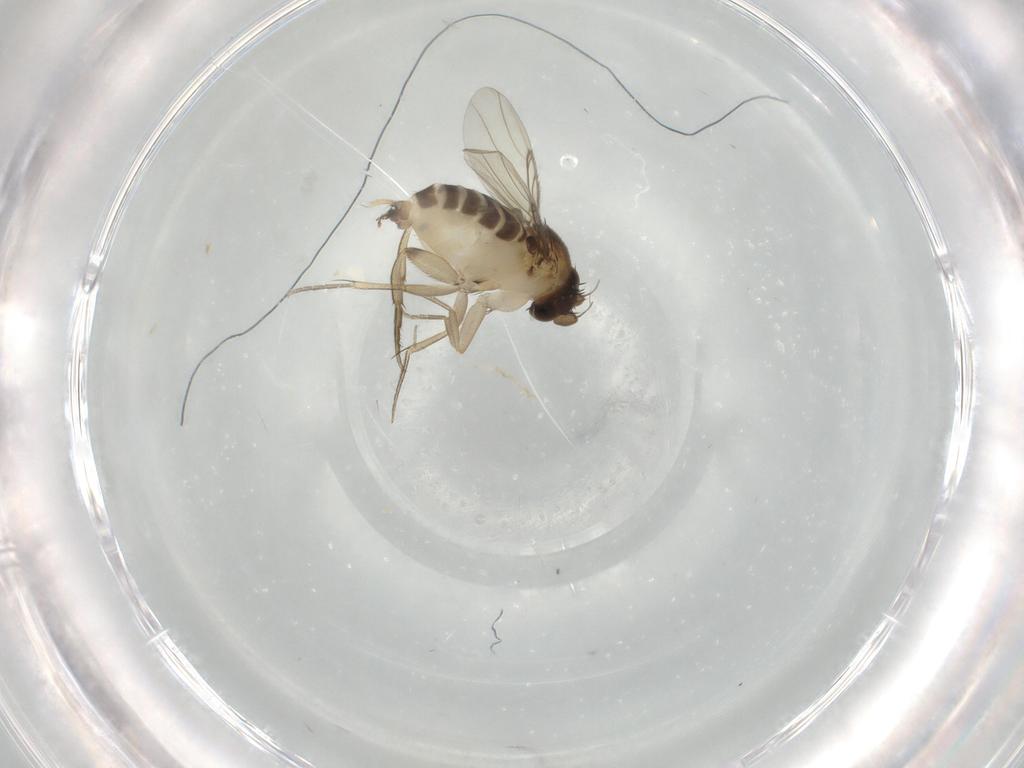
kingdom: Animalia
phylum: Arthropoda
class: Insecta
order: Diptera
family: Phoridae
